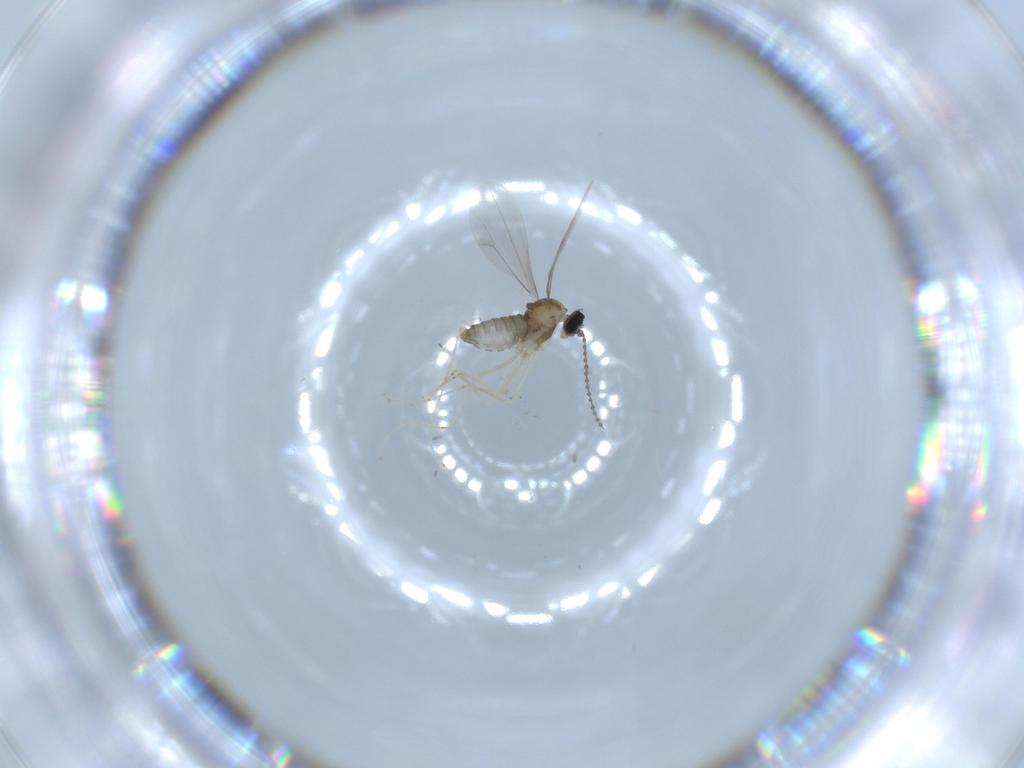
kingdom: Animalia
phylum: Arthropoda
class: Insecta
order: Diptera
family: Cecidomyiidae
